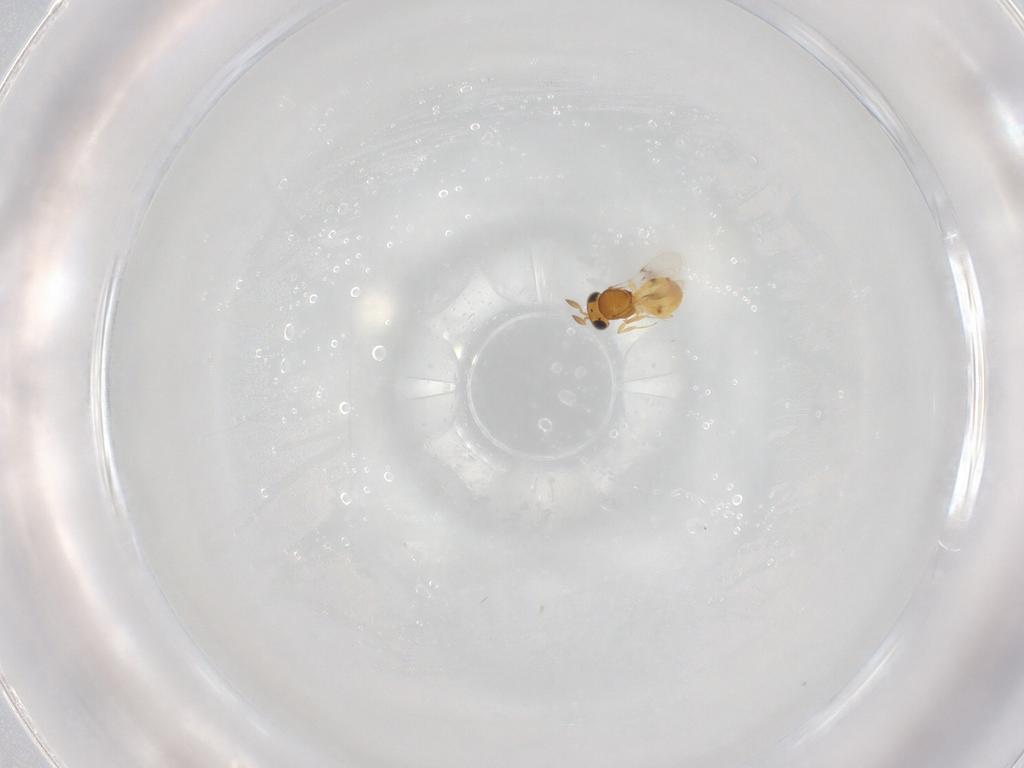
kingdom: Animalia
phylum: Arthropoda
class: Insecta
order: Hymenoptera
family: Scelionidae
